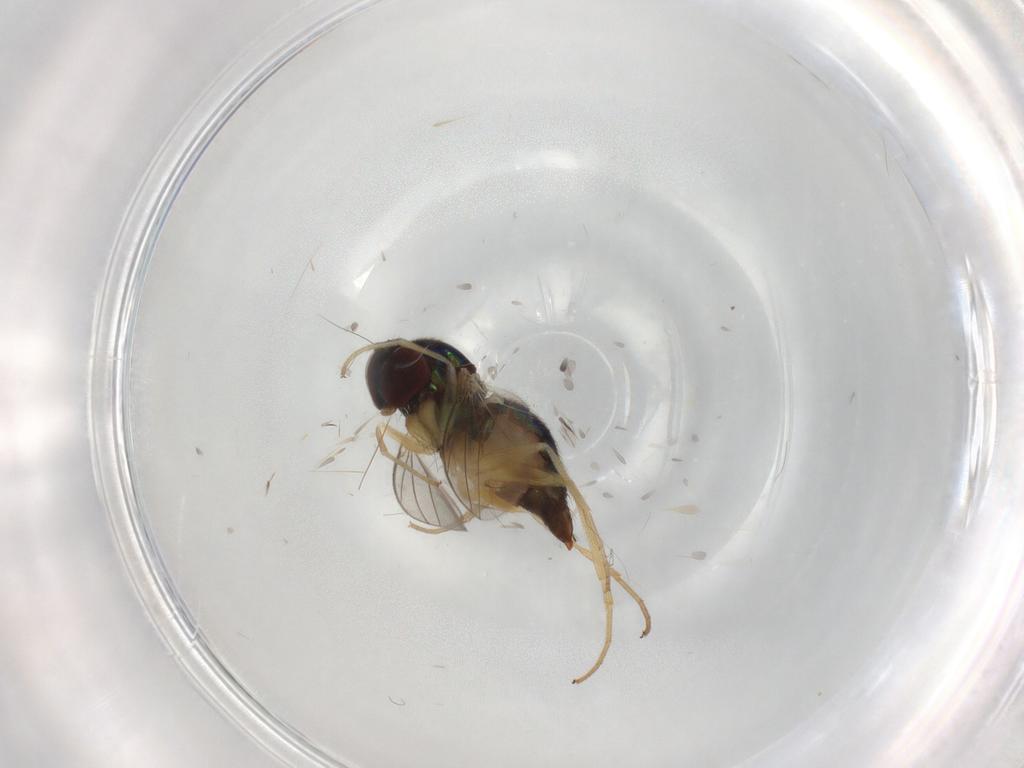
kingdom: Animalia
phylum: Arthropoda
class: Insecta
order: Diptera
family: Dolichopodidae
